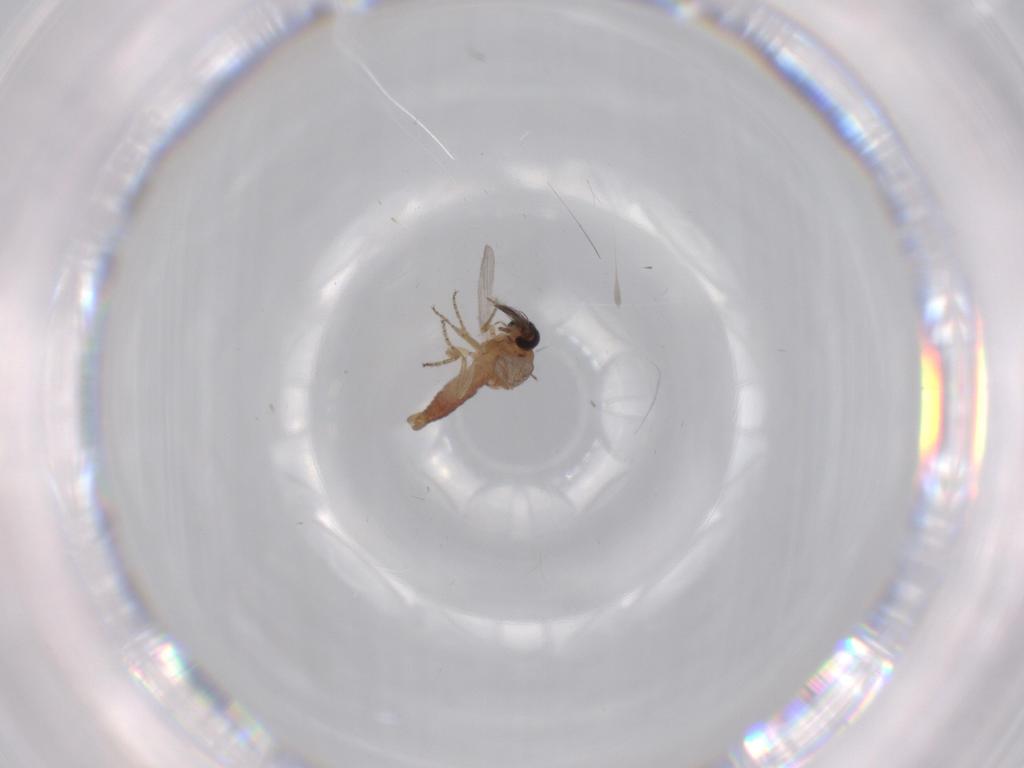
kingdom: Animalia
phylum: Arthropoda
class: Insecta
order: Diptera
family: Ceratopogonidae
